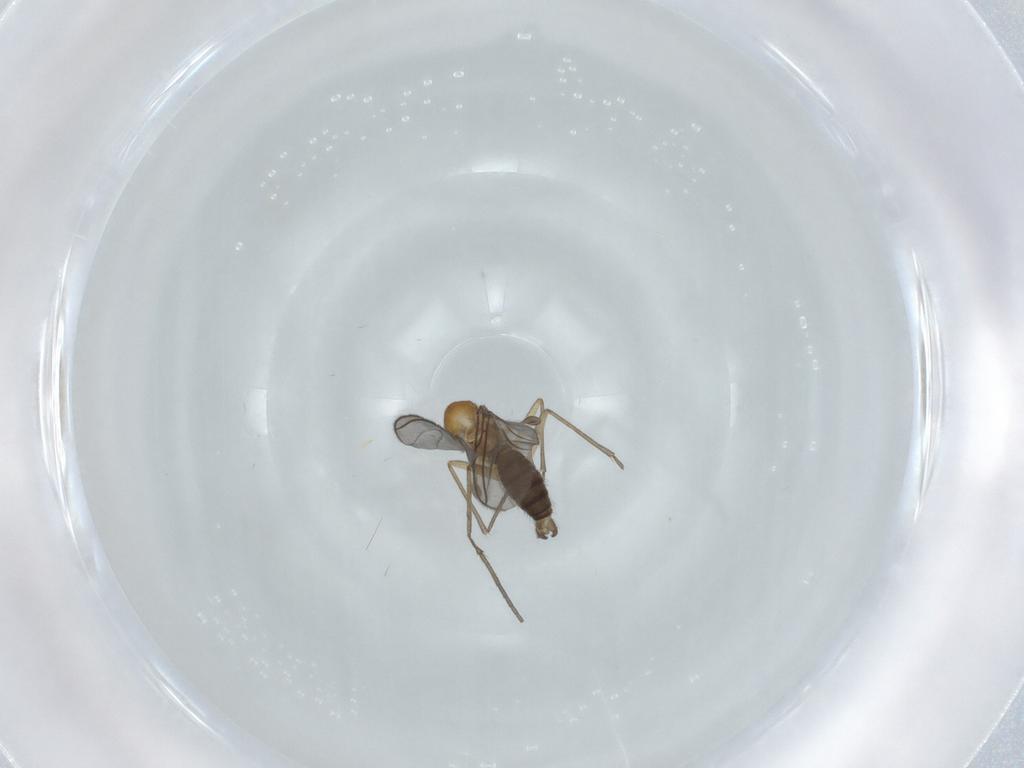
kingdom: Animalia
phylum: Arthropoda
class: Insecta
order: Diptera
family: Sciaridae
